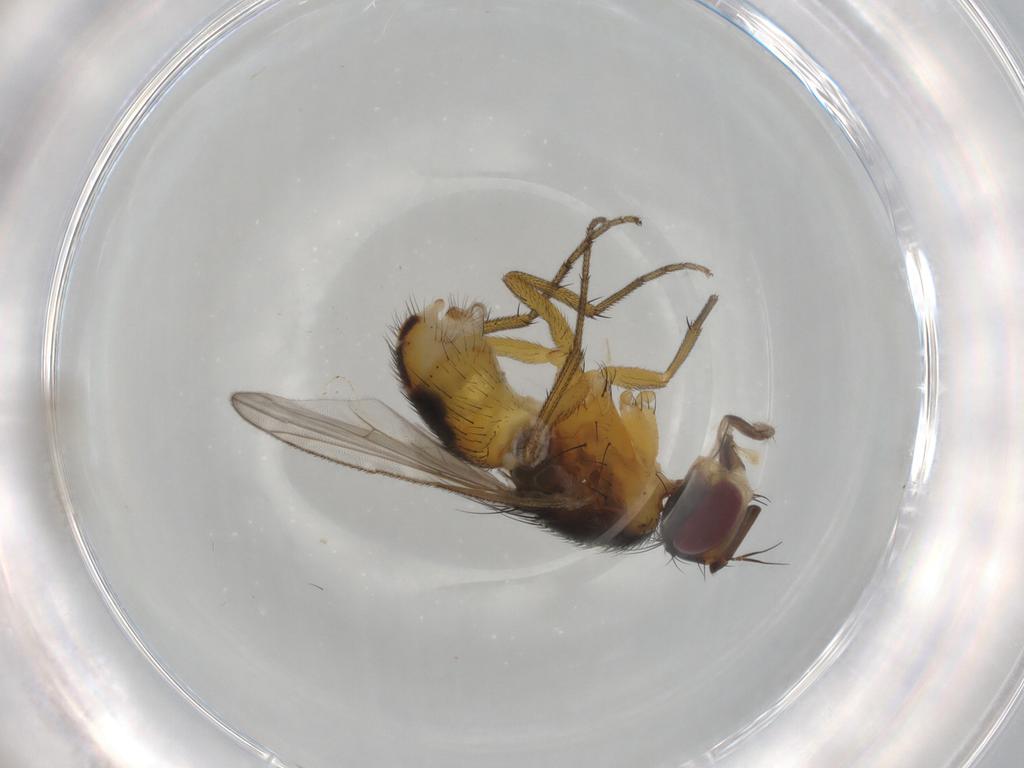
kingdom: Animalia
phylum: Arthropoda
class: Insecta
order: Diptera
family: Muscidae
